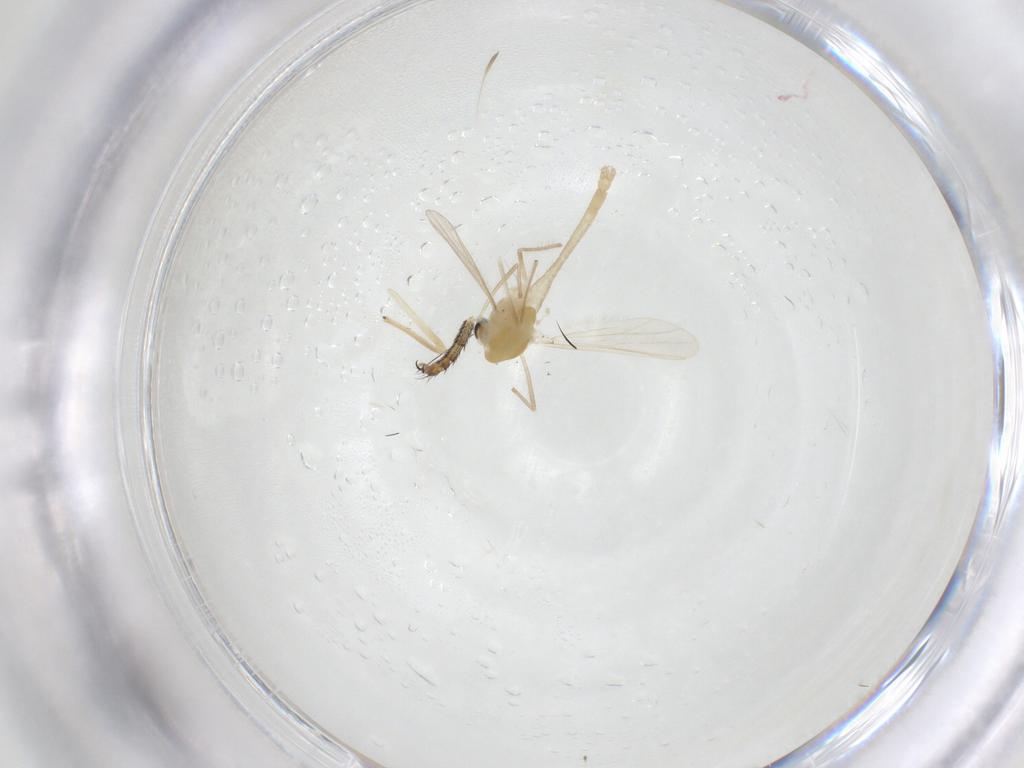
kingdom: Animalia
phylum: Arthropoda
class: Insecta
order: Diptera
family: Chironomidae
